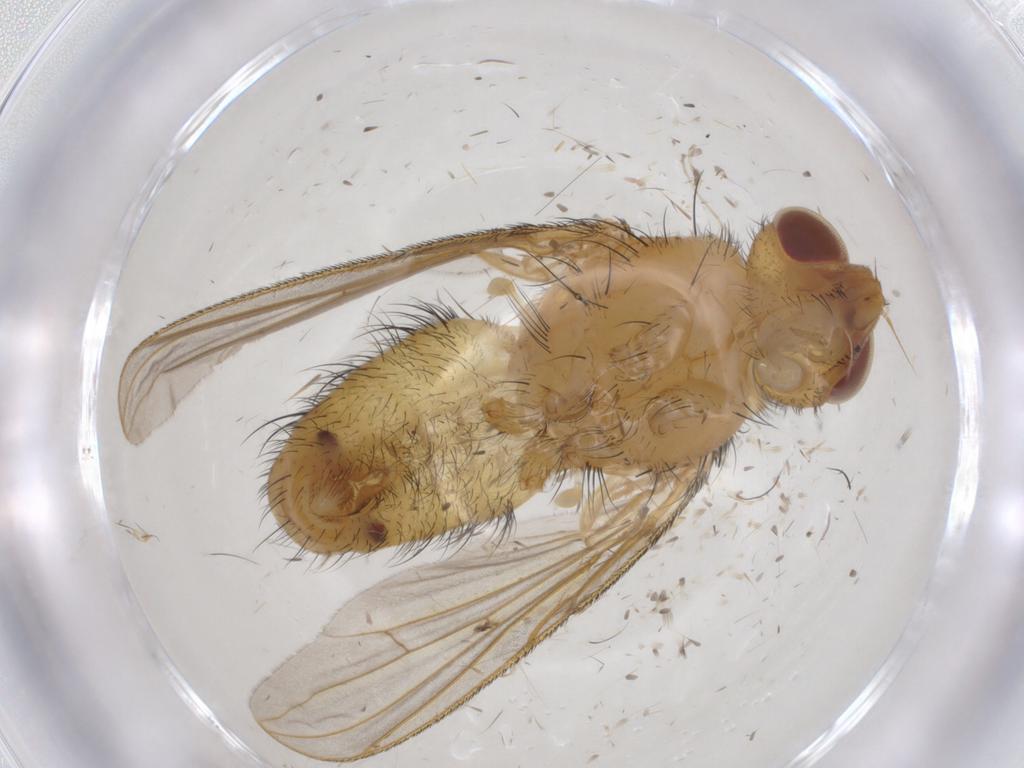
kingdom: Animalia
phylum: Arthropoda
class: Insecta
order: Diptera
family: Tachinidae
